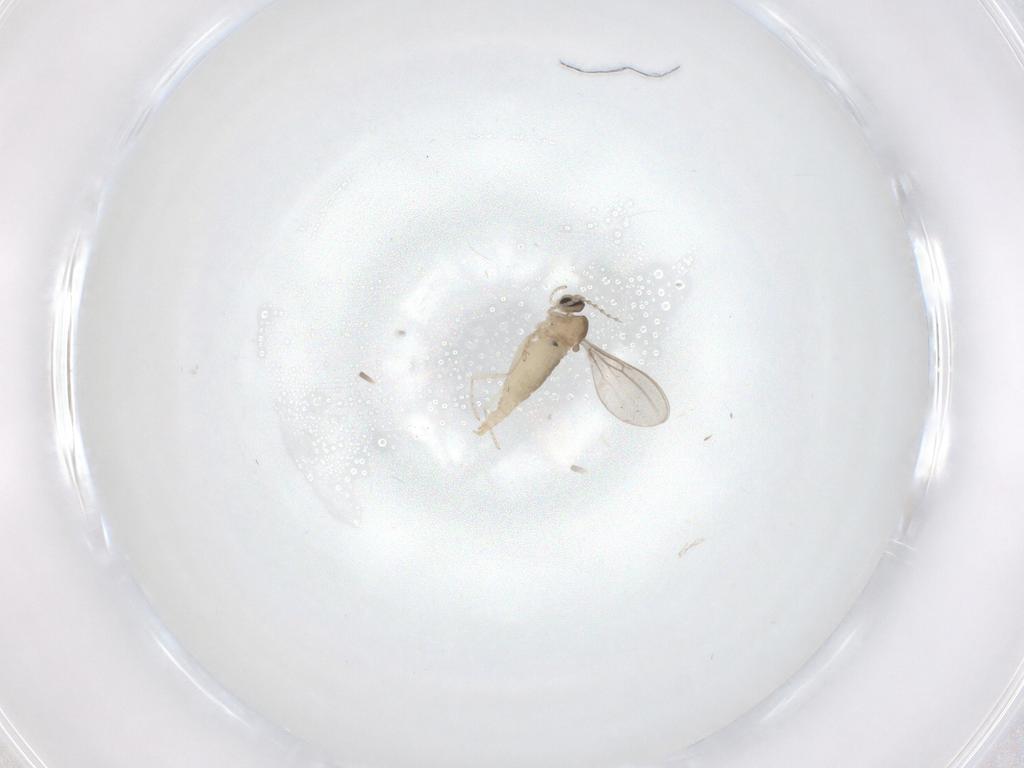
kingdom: Animalia
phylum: Arthropoda
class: Insecta
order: Diptera
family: Cecidomyiidae
